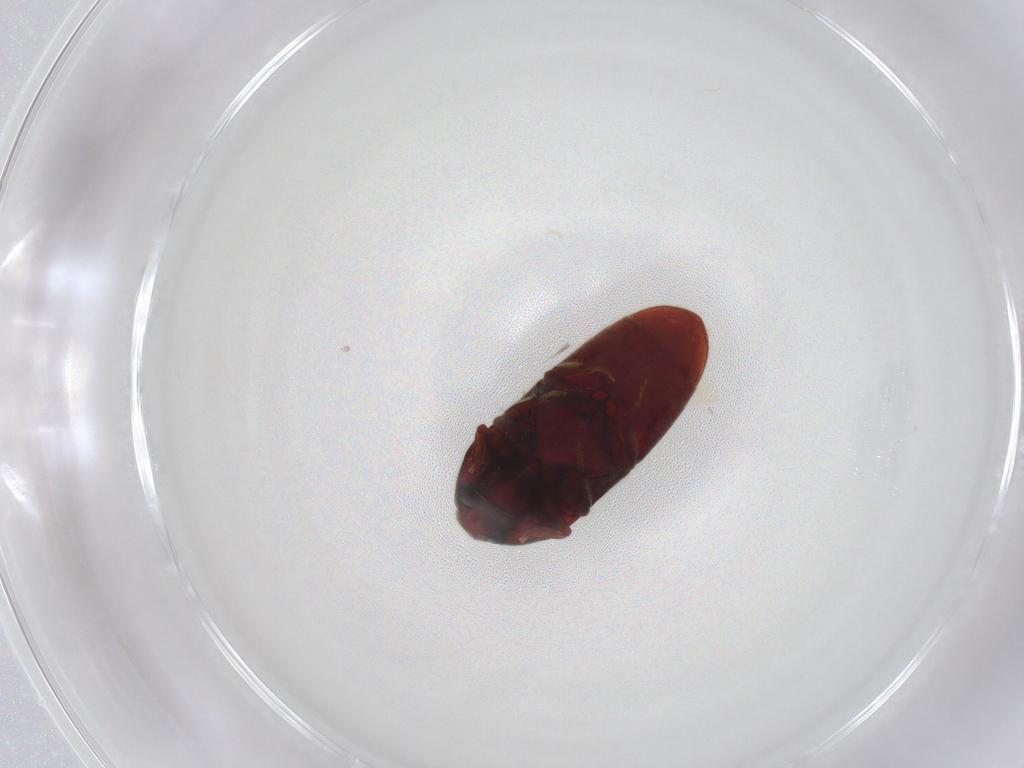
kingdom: Animalia
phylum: Arthropoda
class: Insecta
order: Coleoptera
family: Throscidae
